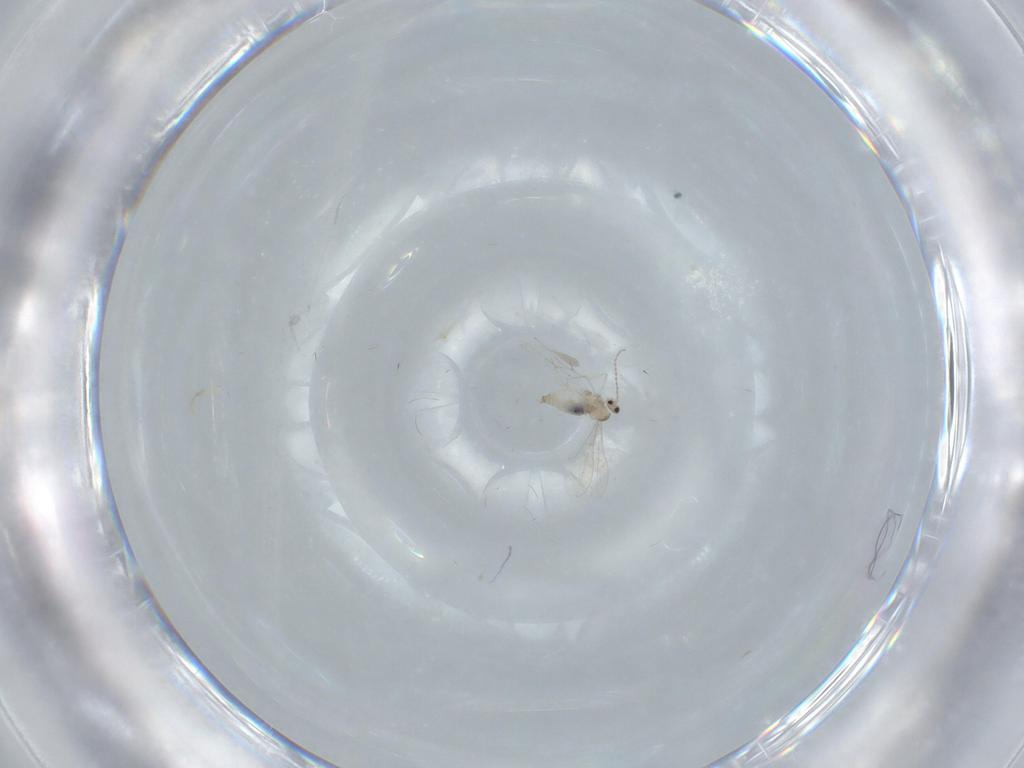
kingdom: Animalia
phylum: Arthropoda
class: Insecta
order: Diptera
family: Cecidomyiidae
